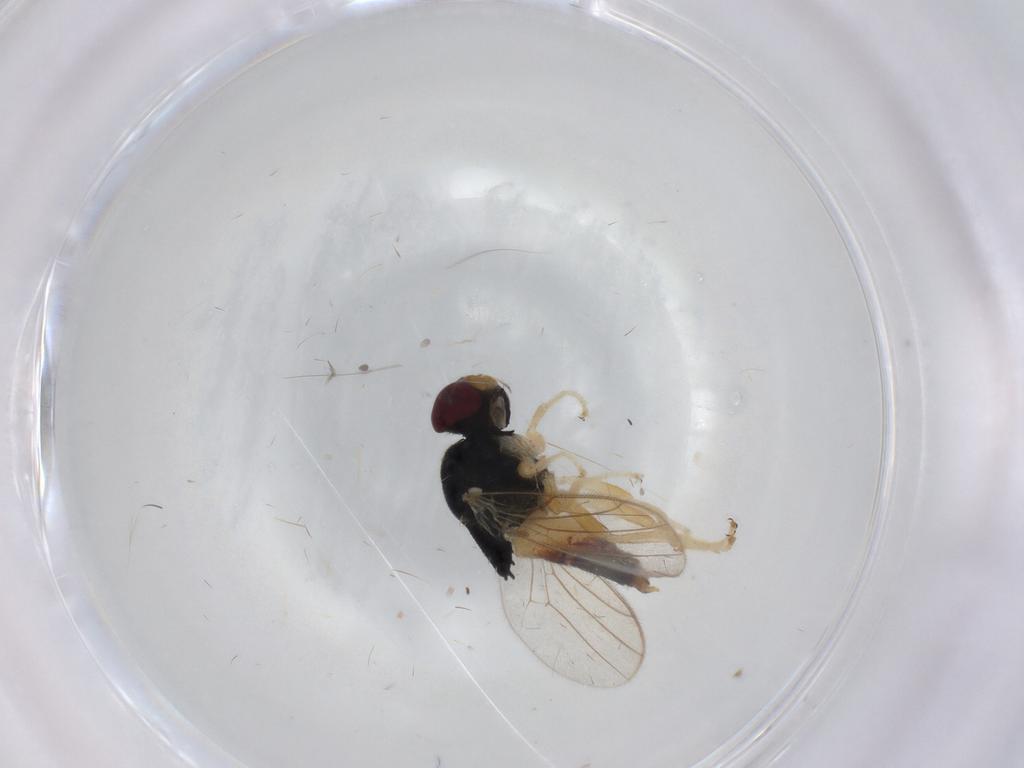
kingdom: Animalia
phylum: Arthropoda
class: Insecta
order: Diptera
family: Chloropidae
